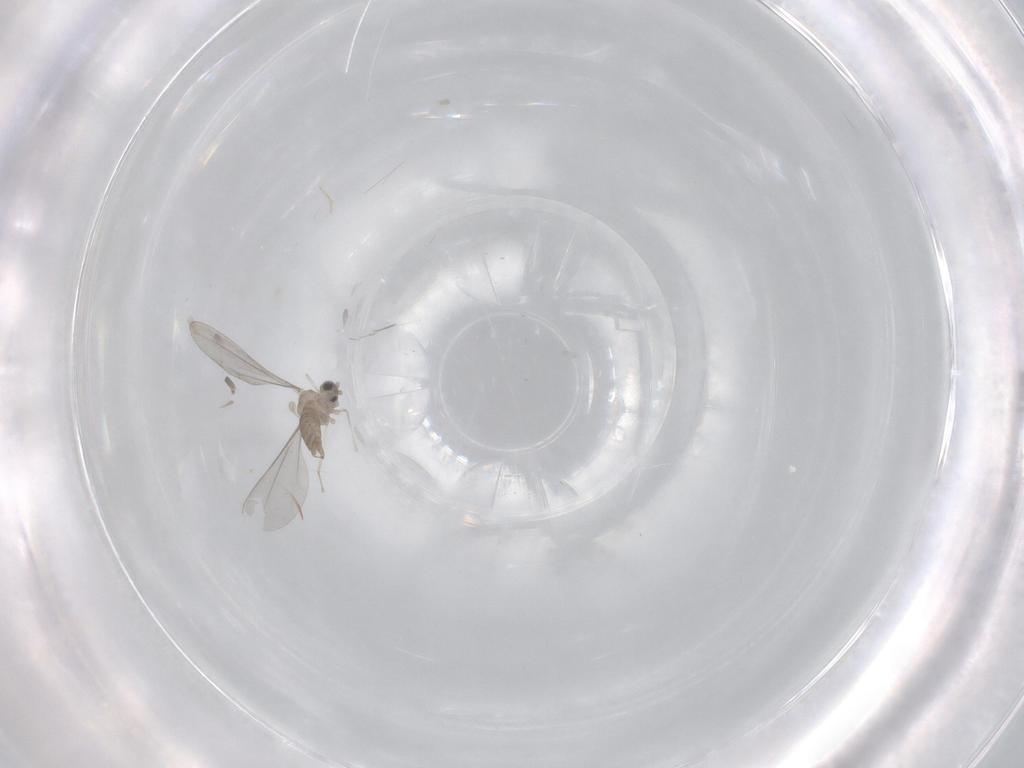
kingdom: Animalia
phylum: Arthropoda
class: Insecta
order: Diptera
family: Cecidomyiidae
